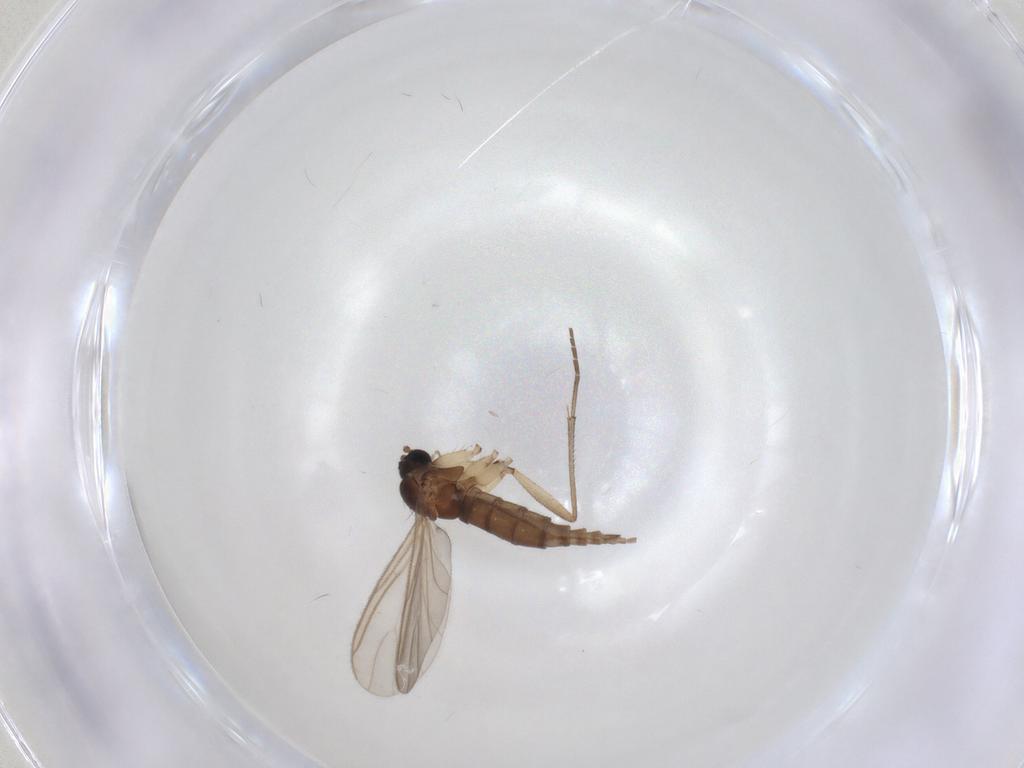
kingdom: Animalia
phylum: Arthropoda
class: Insecta
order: Diptera
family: Sciaridae
